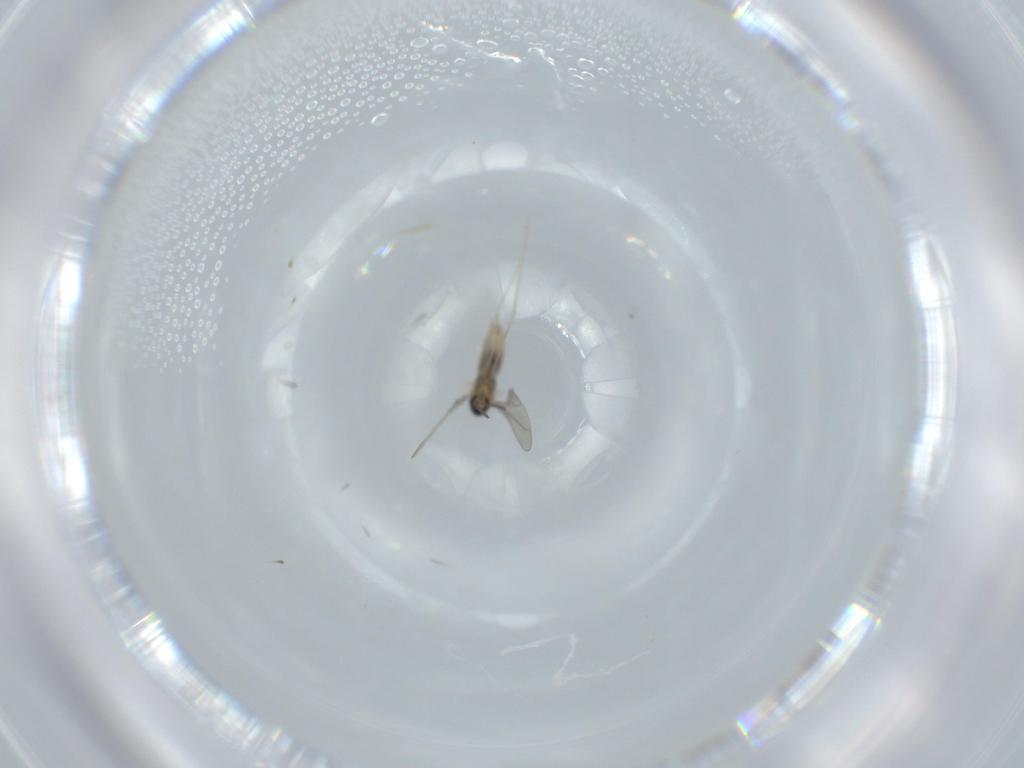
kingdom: Animalia
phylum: Arthropoda
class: Insecta
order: Diptera
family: Cecidomyiidae
